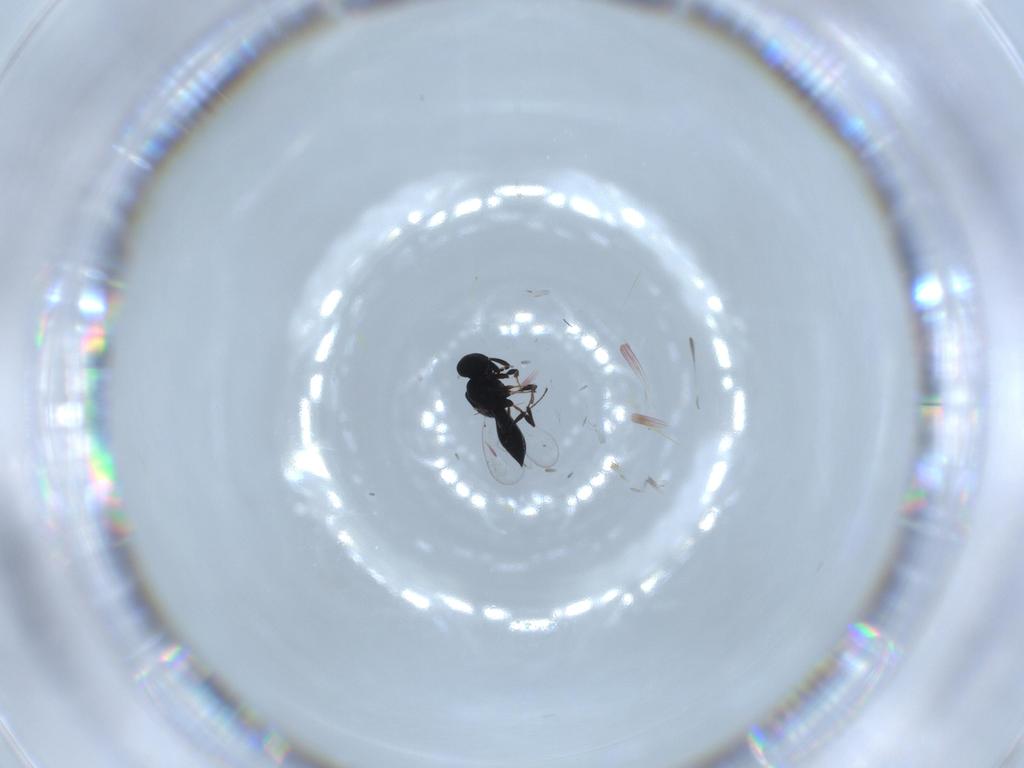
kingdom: Animalia
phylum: Arthropoda
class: Insecta
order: Hymenoptera
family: Platygastridae
